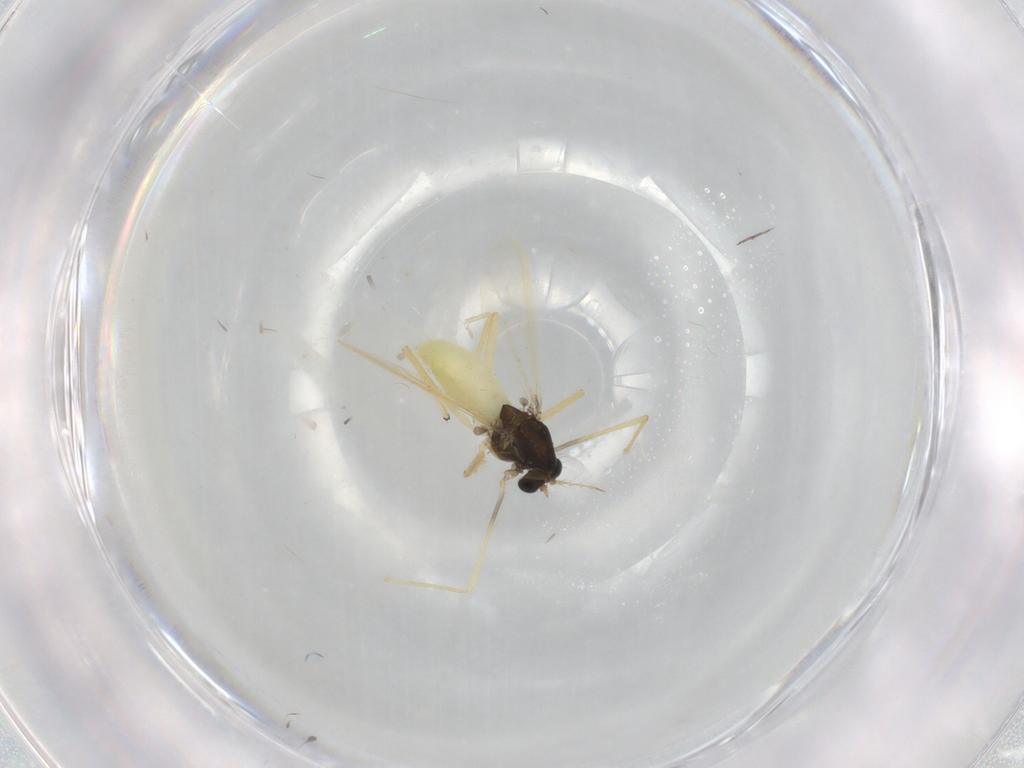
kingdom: Animalia
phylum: Arthropoda
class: Insecta
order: Diptera
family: Chironomidae
